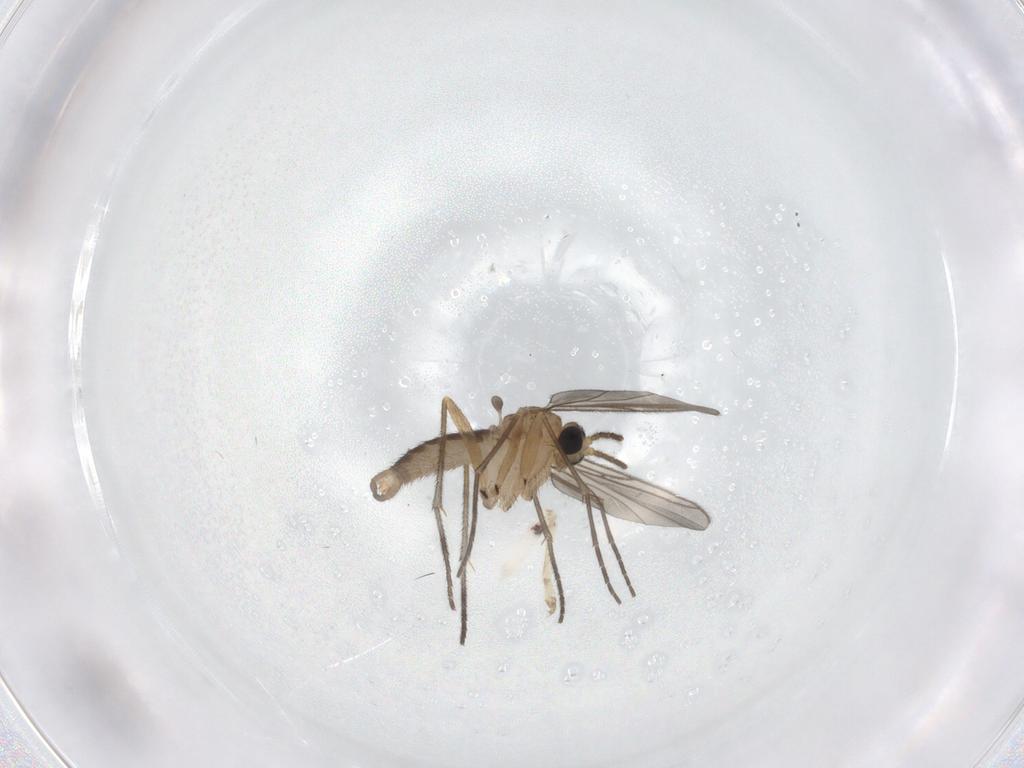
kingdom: Animalia
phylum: Arthropoda
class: Insecta
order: Diptera
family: Sciaridae
